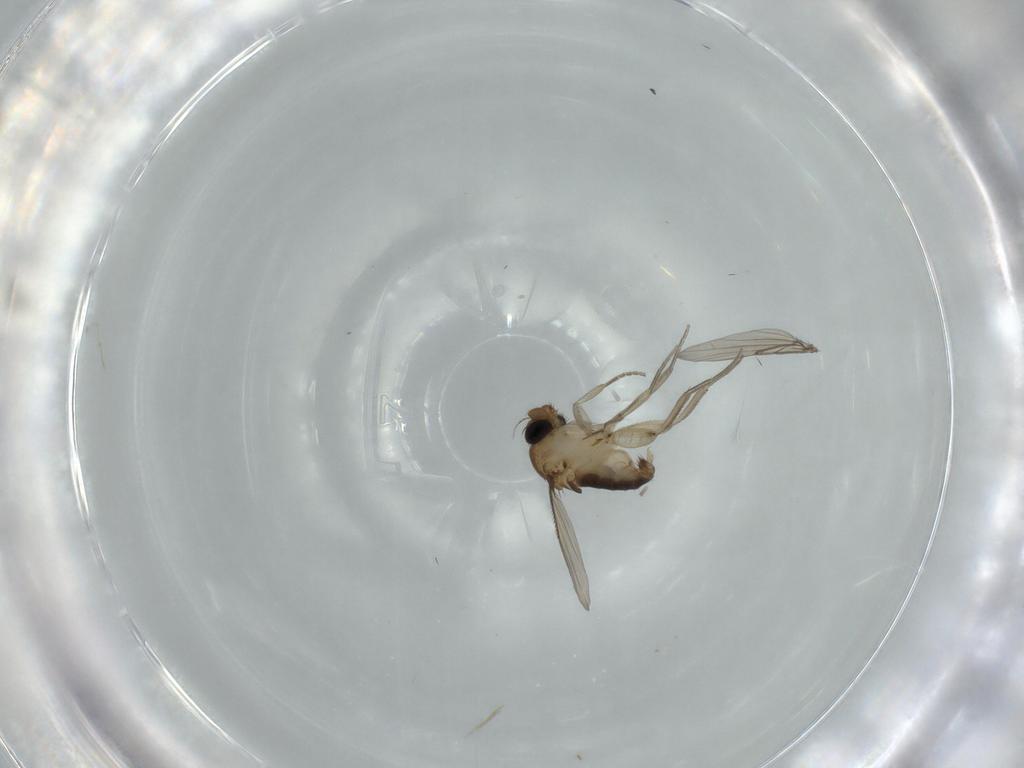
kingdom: Animalia
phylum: Arthropoda
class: Insecta
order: Diptera
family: Phoridae
